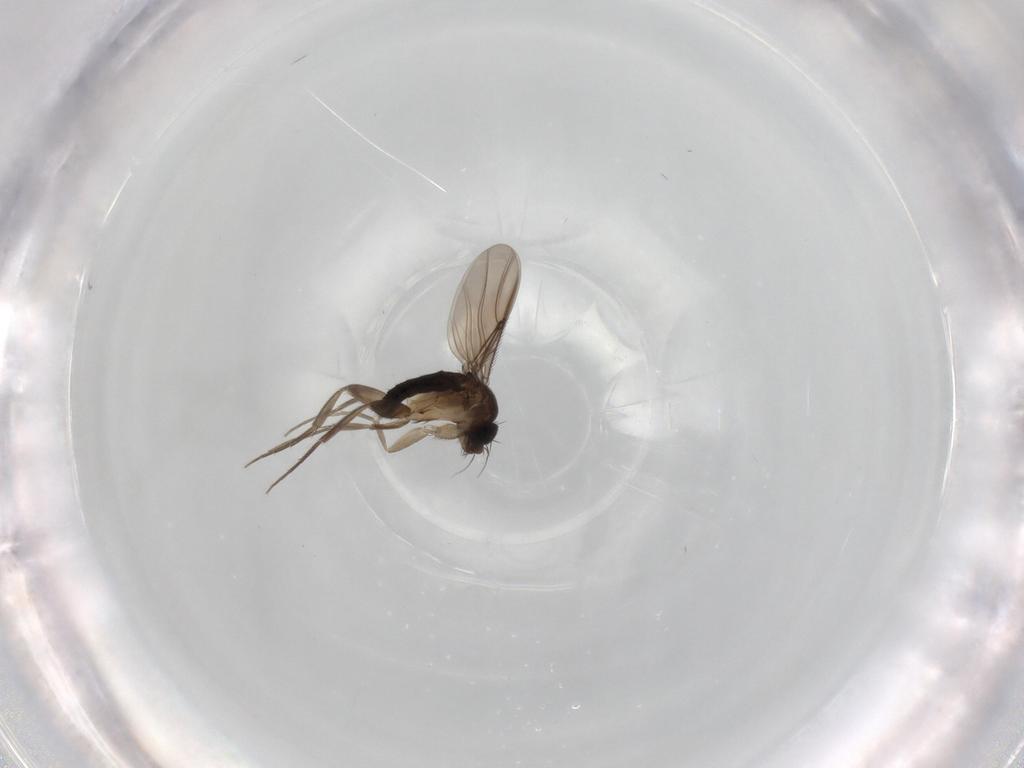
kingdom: Animalia
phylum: Arthropoda
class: Insecta
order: Diptera
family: Phoridae
